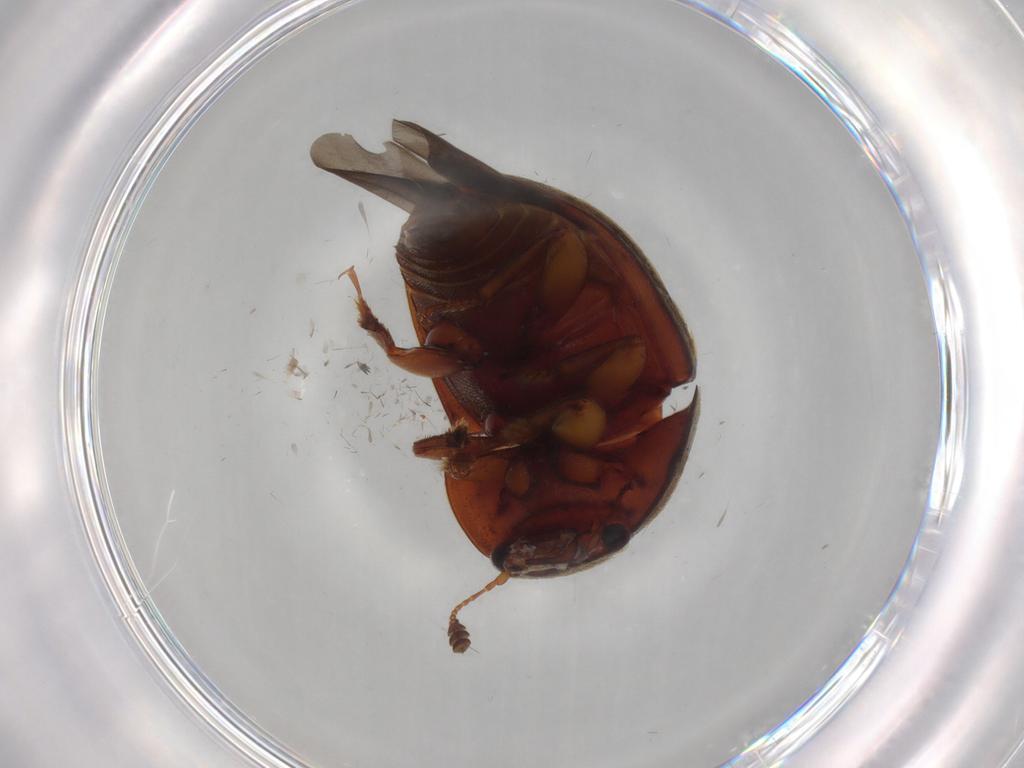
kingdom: Animalia
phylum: Arthropoda
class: Insecta
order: Coleoptera
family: Nitidulidae
